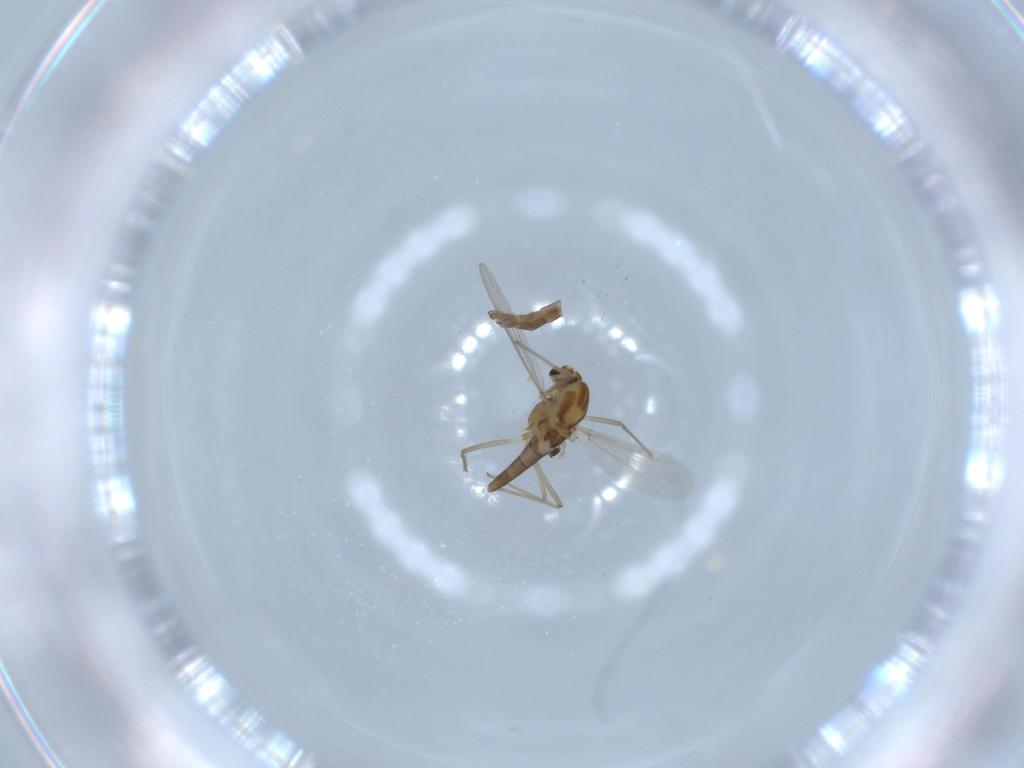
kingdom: Animalia
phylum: Arthropoda
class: Insecta
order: Diptera
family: Chironomidae
